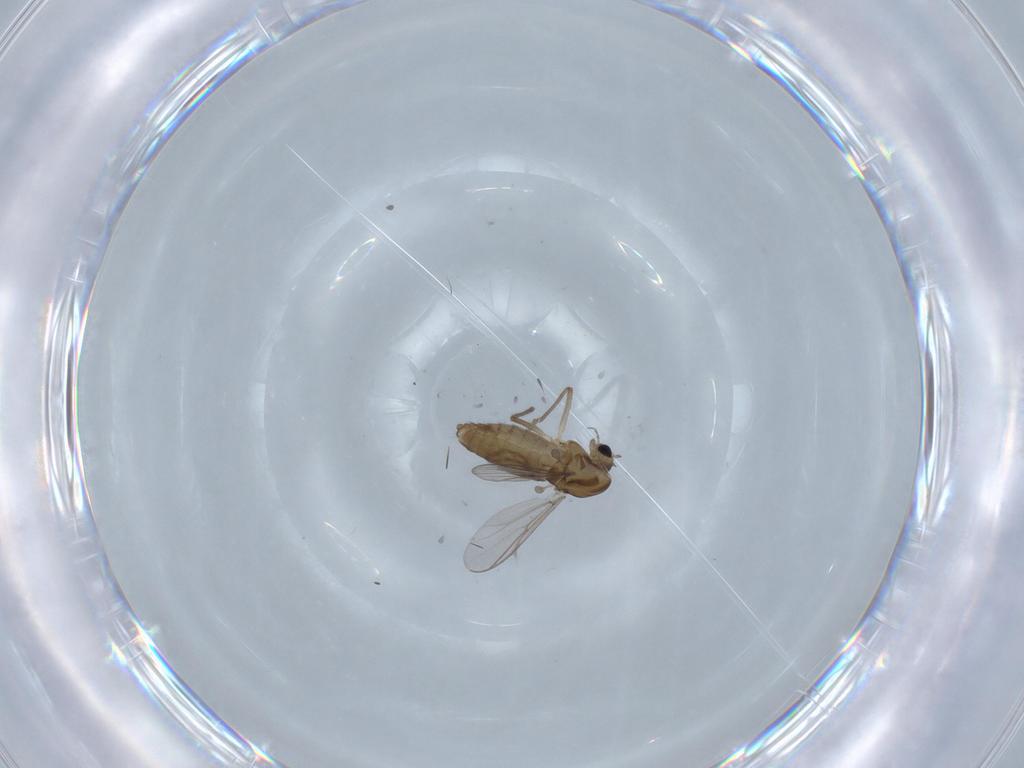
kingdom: Animalia
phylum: Arthropoda
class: Insecta
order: Diptera
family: Chironomidae
